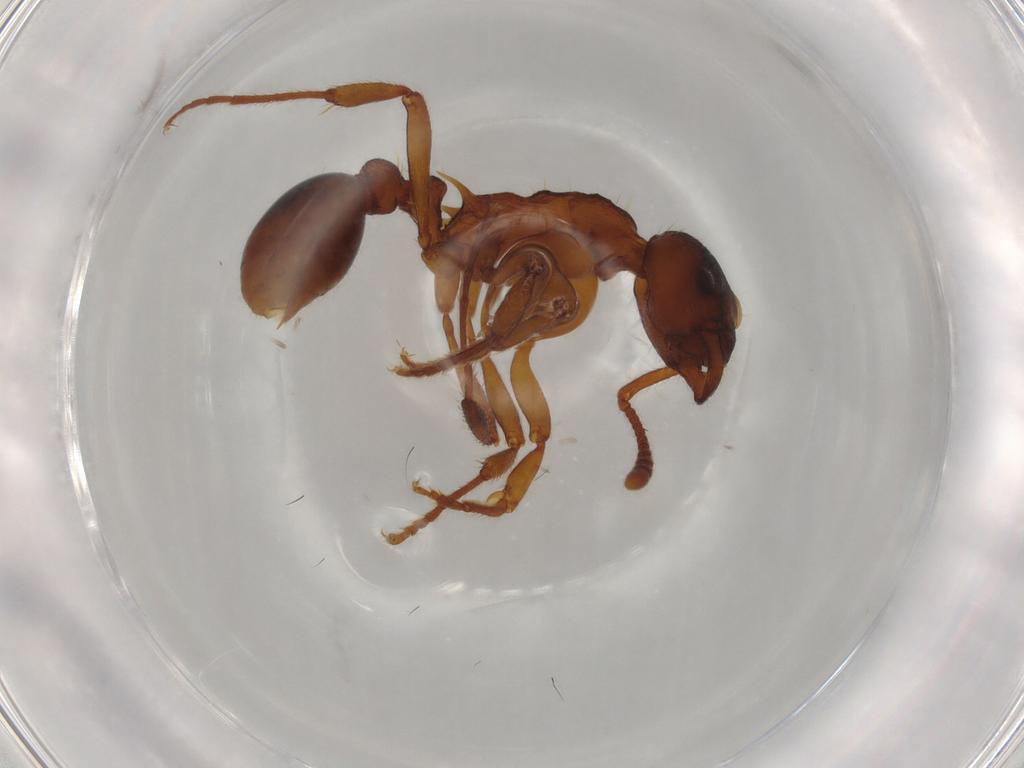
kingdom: Animalia
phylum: Arthropoda
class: Insecta
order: Hymenoptera
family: Formicidae
